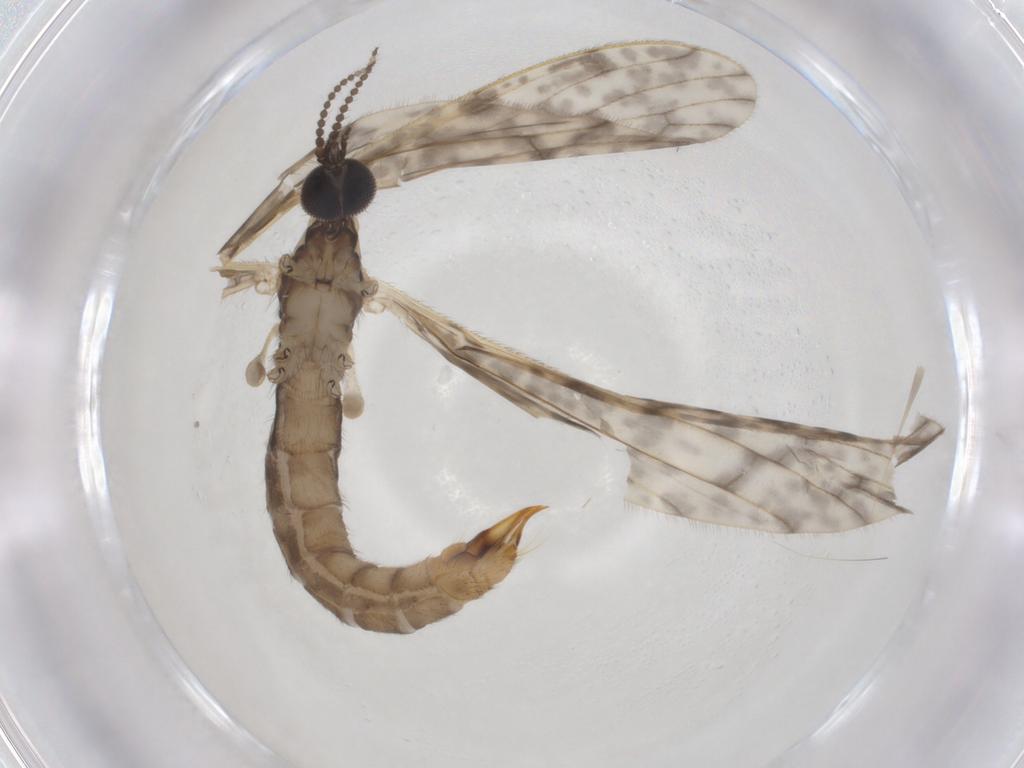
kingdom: Animalia
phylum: Arthropoda
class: Insecta
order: Diptera
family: Limoniidae
